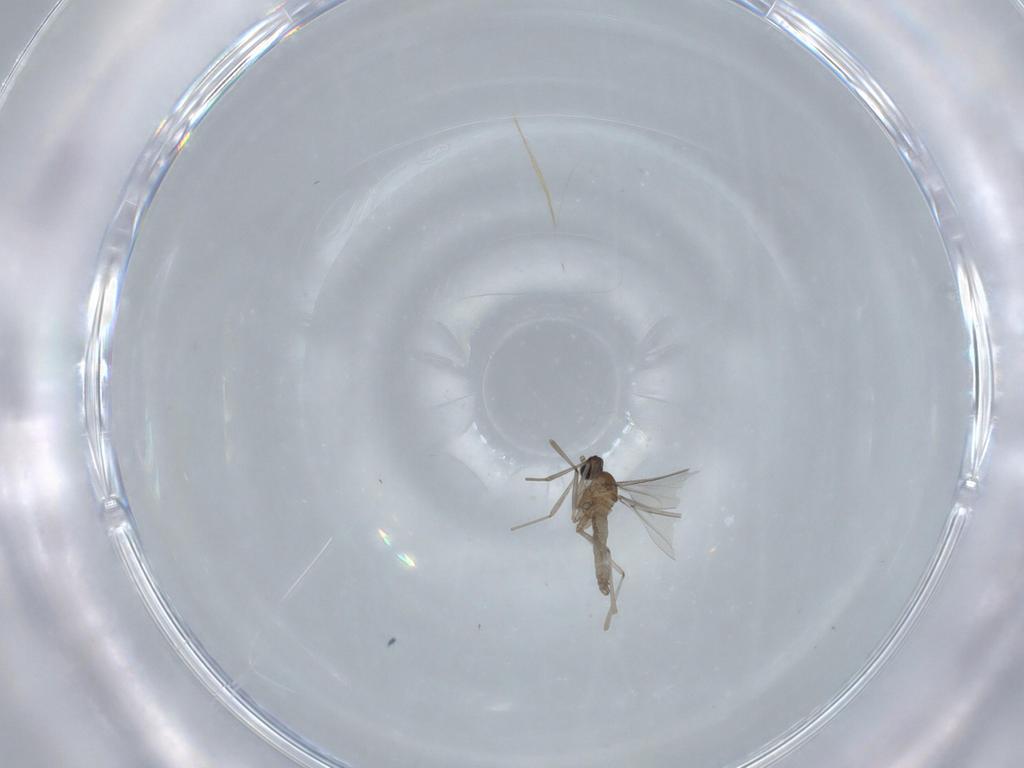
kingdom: Animalia
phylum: Arthropoda
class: Insecta
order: Diptera
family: Cecidomyiidae
